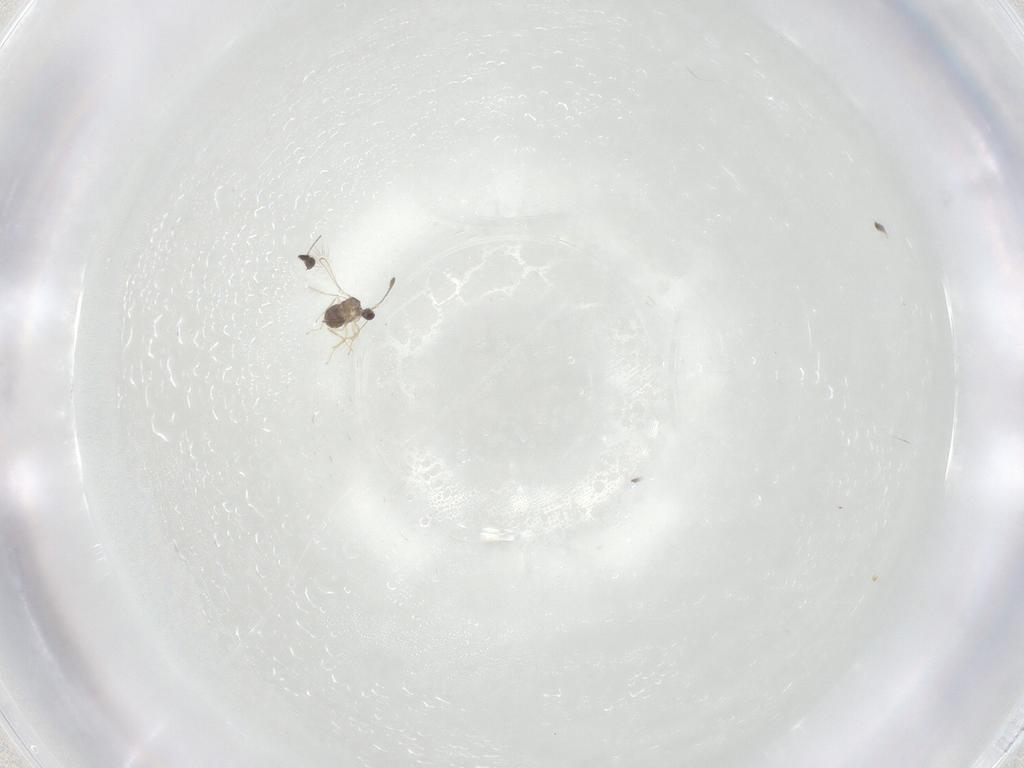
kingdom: Animalia
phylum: Arthropoda
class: Insecta
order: Hymenoptera
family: Mymaridae
